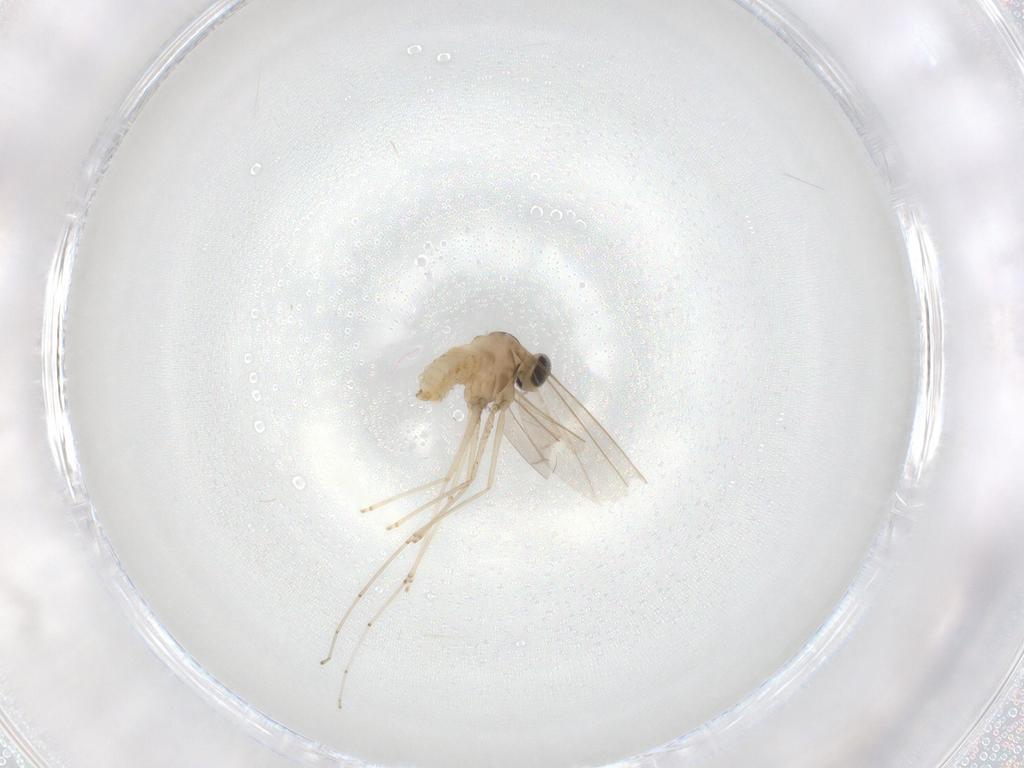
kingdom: Animalia
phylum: Arthropoda
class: Insecta
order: Diptera
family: Cecidomyiidae
